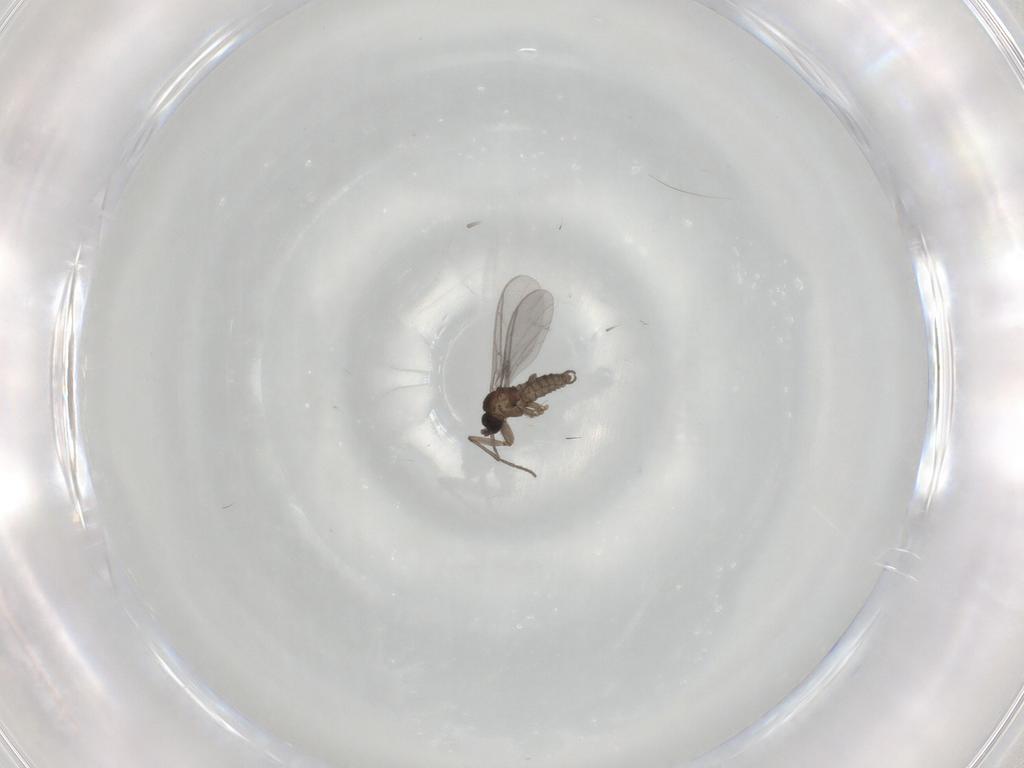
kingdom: Animalia
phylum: Arthropoda
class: Insecta
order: Diptera
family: Sciaridae
